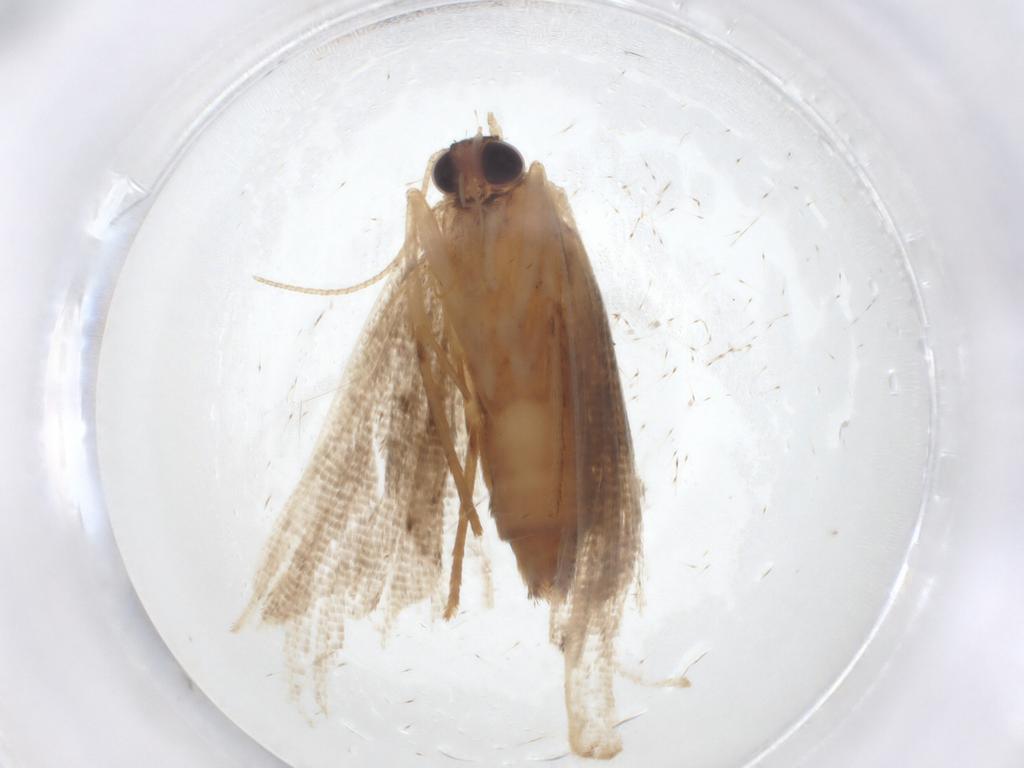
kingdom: Animalia
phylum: Arthropoda
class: Insecta
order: Lepidoptera
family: Erebidae
